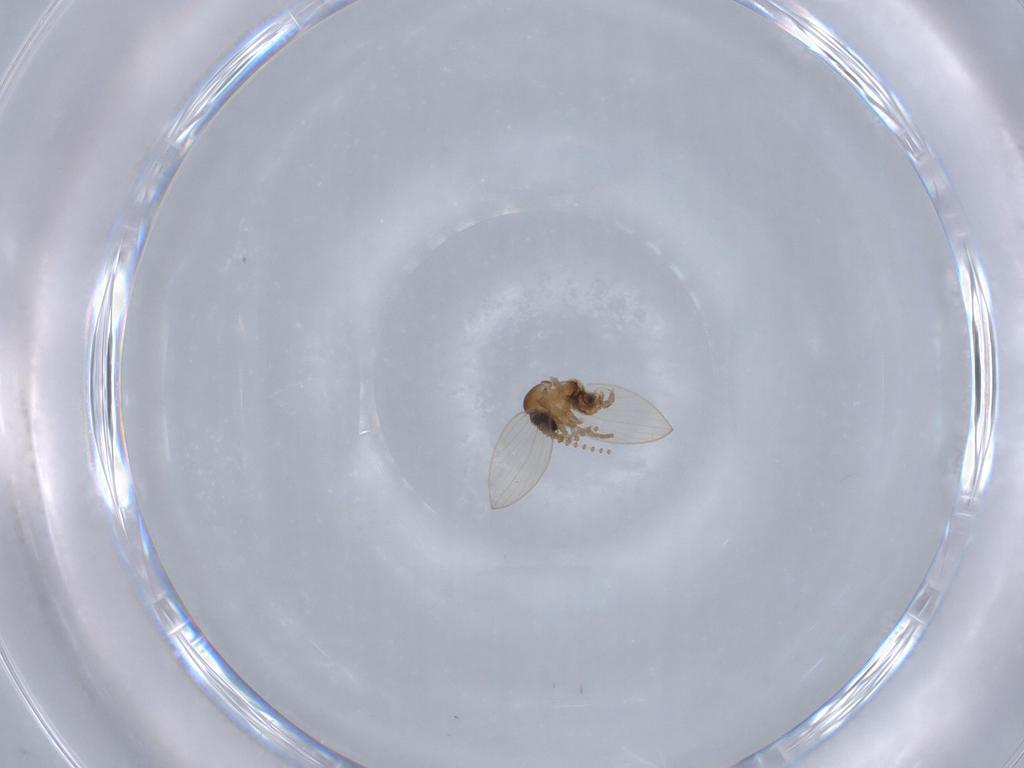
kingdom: Animalia
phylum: Arthropoda
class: Insecta
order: Diptera
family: Psychodidae
